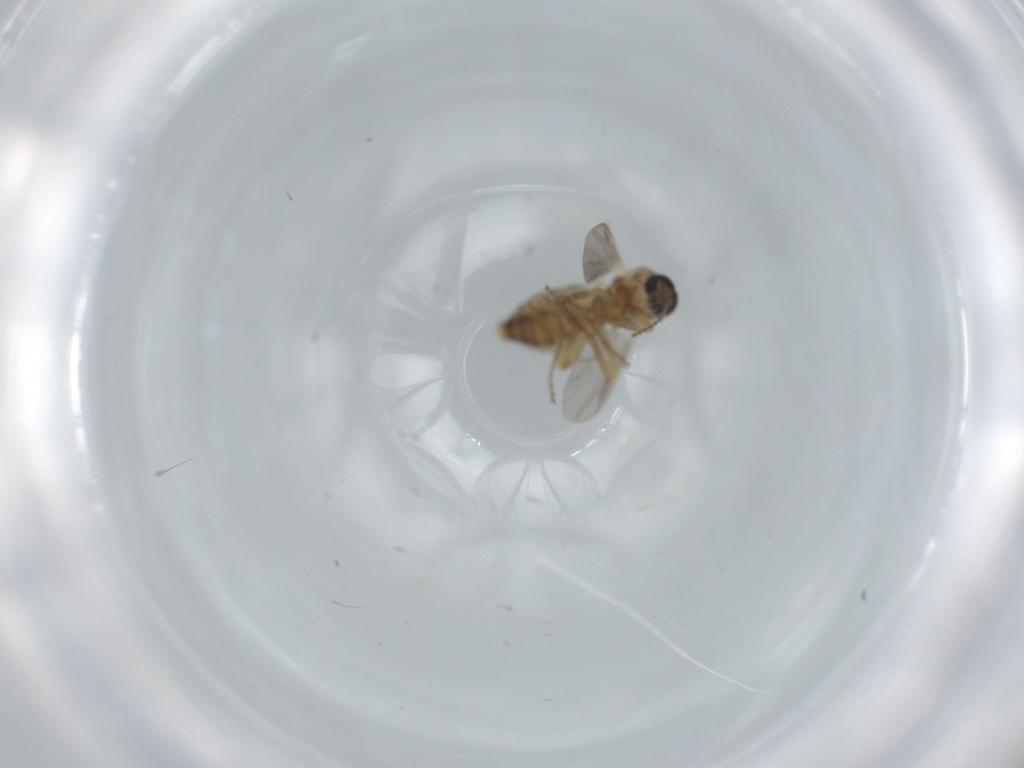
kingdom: Animalia
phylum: Arthropoda
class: Insecta
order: Diptera
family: Ceratopogonidae
